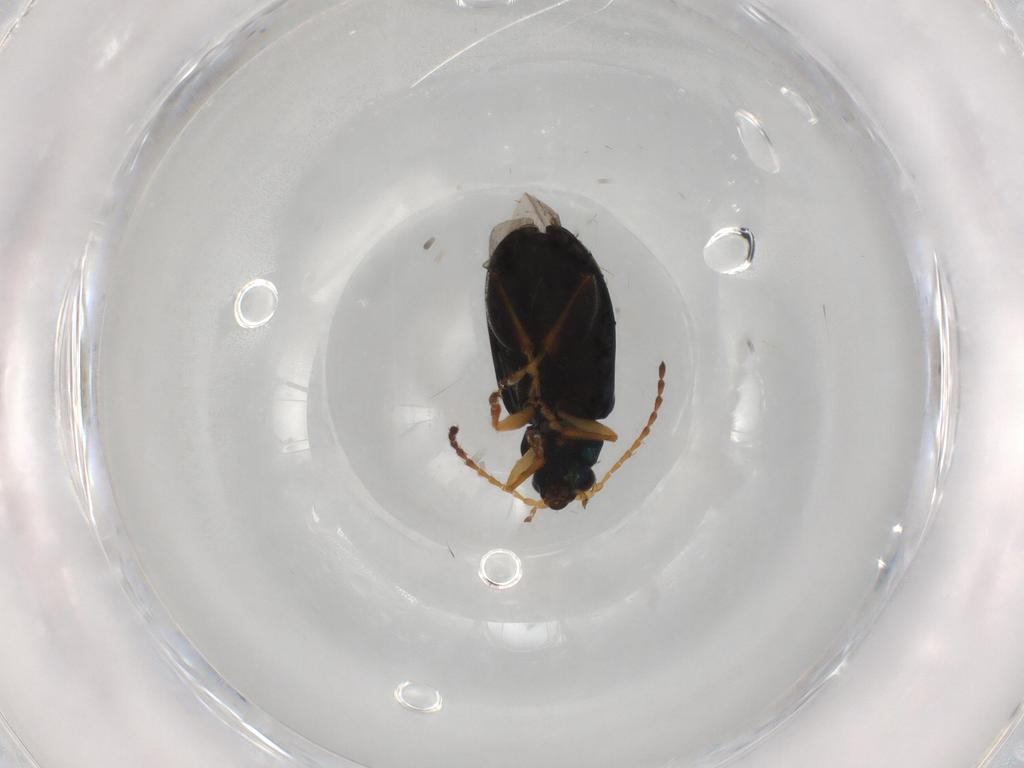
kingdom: Animalia
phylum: Arthropoda
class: Insecta
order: Coleoptera
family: Chrysomelidae
